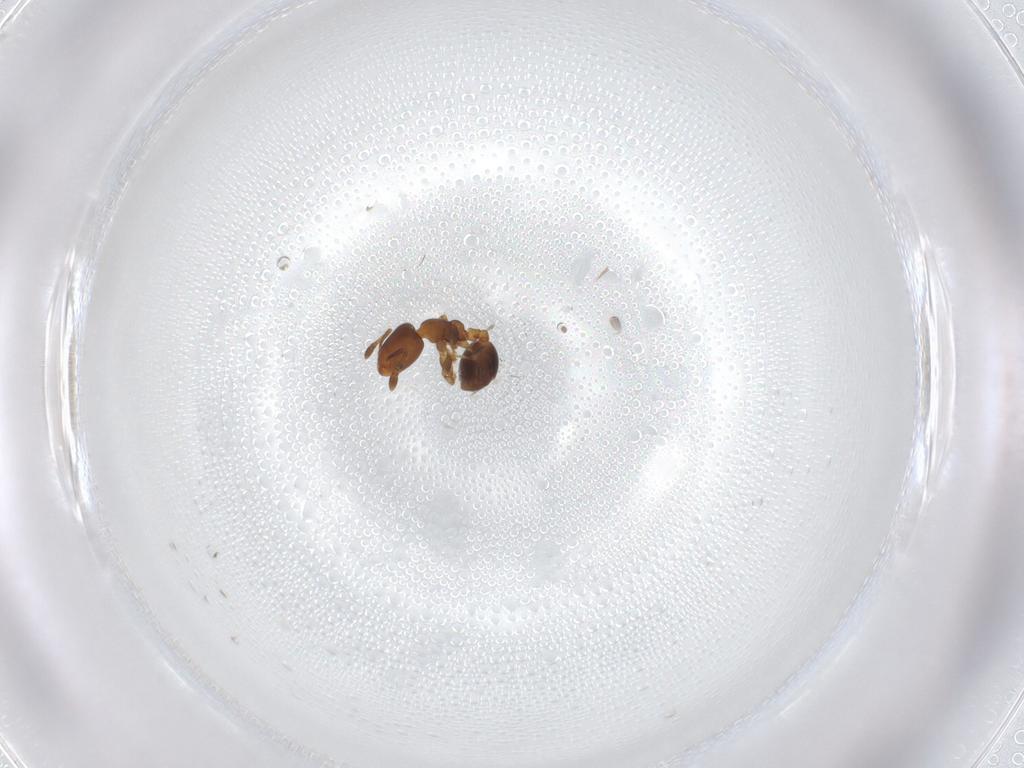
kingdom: Animalia
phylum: Arthropoda
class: Insecta
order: Hymenoptera
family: Formicidae
